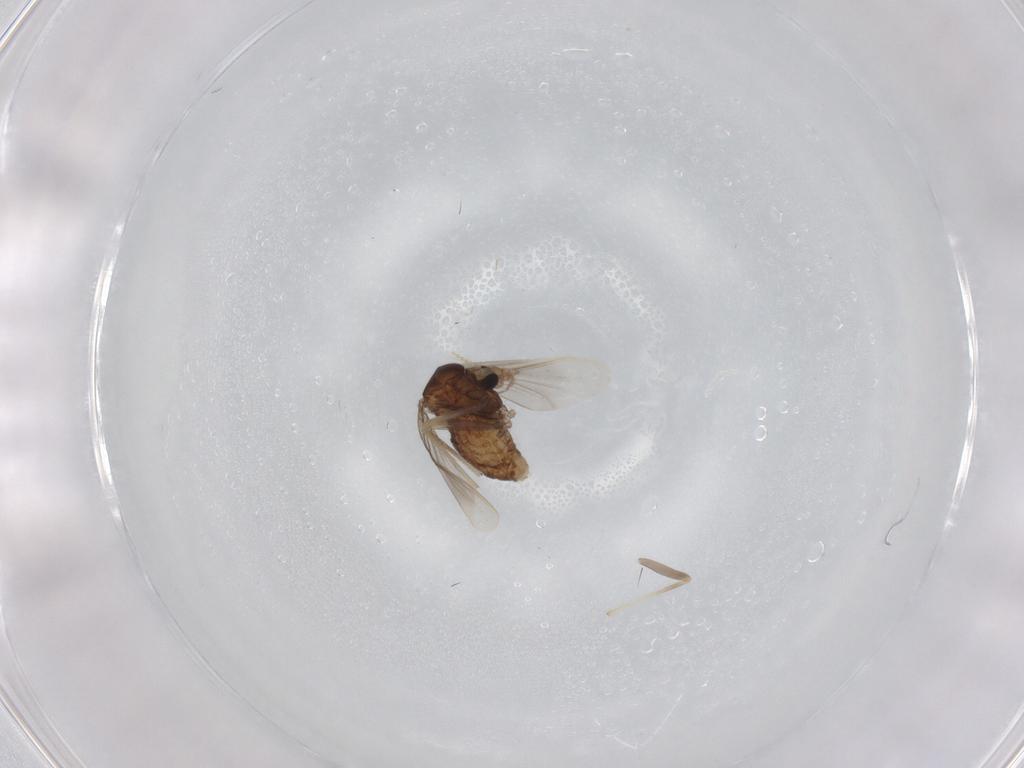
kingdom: Animalia
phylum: Arthropoda
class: Insecta
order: Diptera
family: Chironomidae
